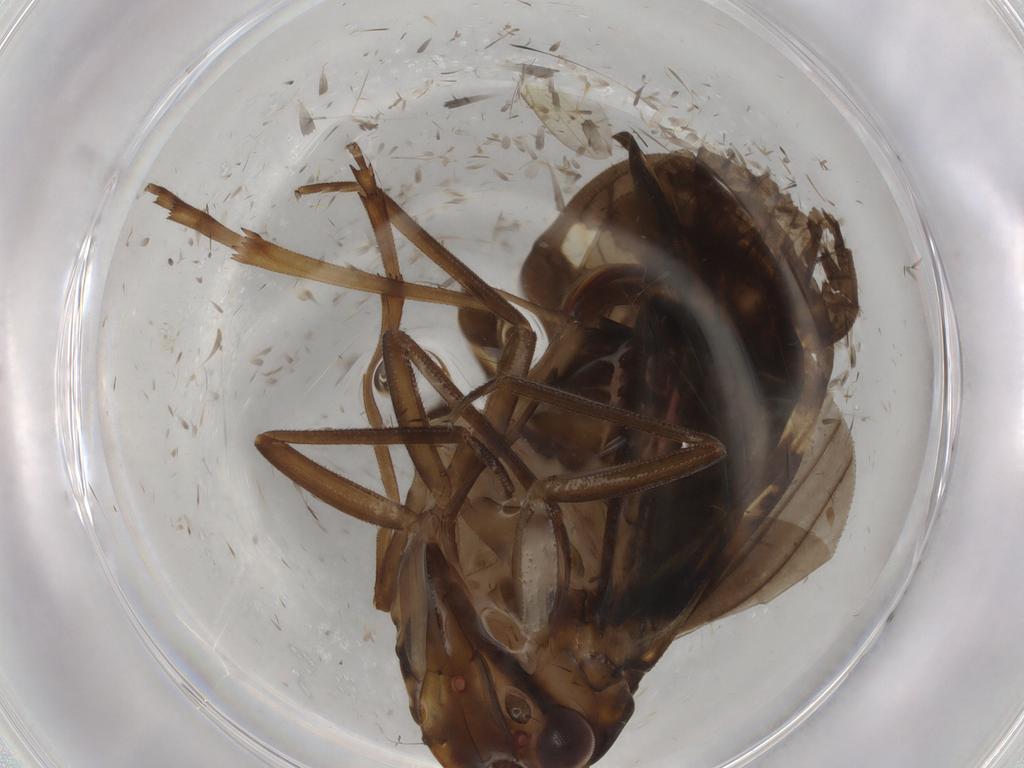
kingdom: Animalia
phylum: Arthropoda
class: Insecta
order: Hemiptera
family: Cixiidae
